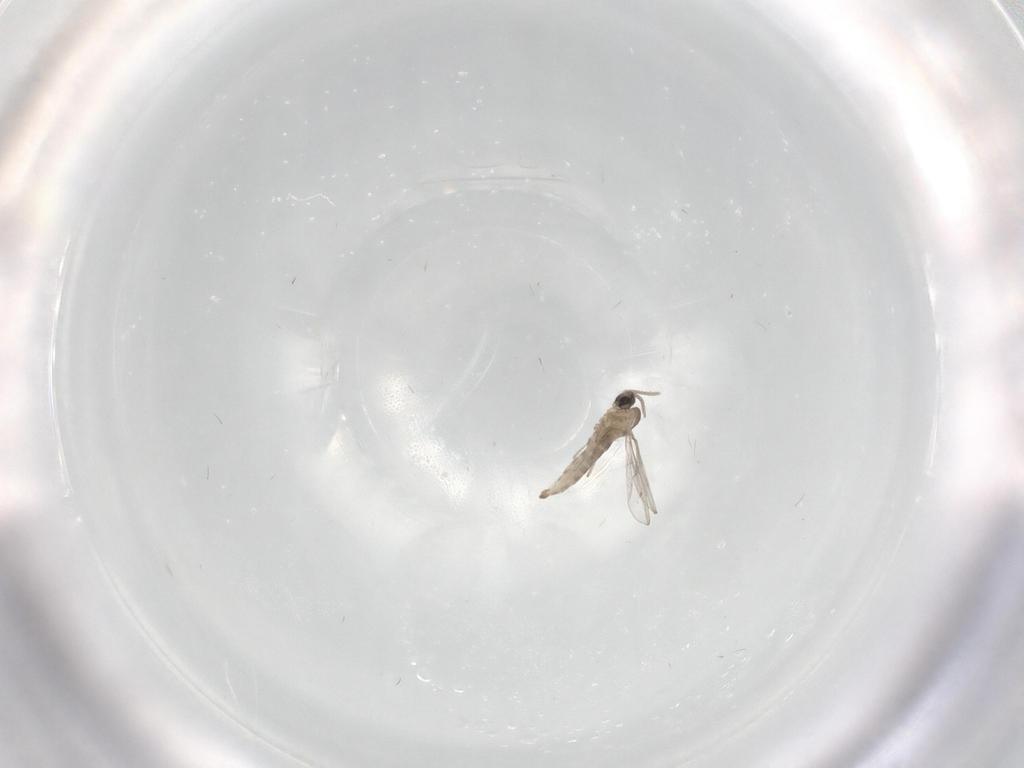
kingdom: Animalia
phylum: Arthropoda
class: Insecta
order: Diptera
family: Cecidomyiidae
